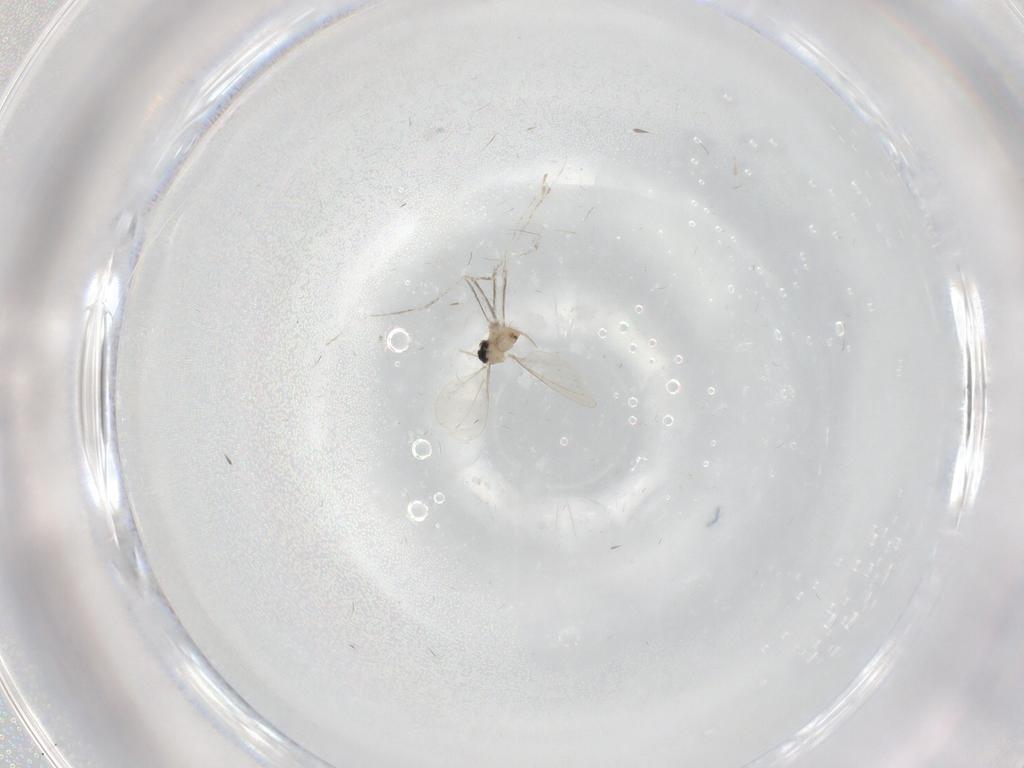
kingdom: Animalia
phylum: Arthropoda
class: Insecta
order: Diptera
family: Cecidomyiidae
